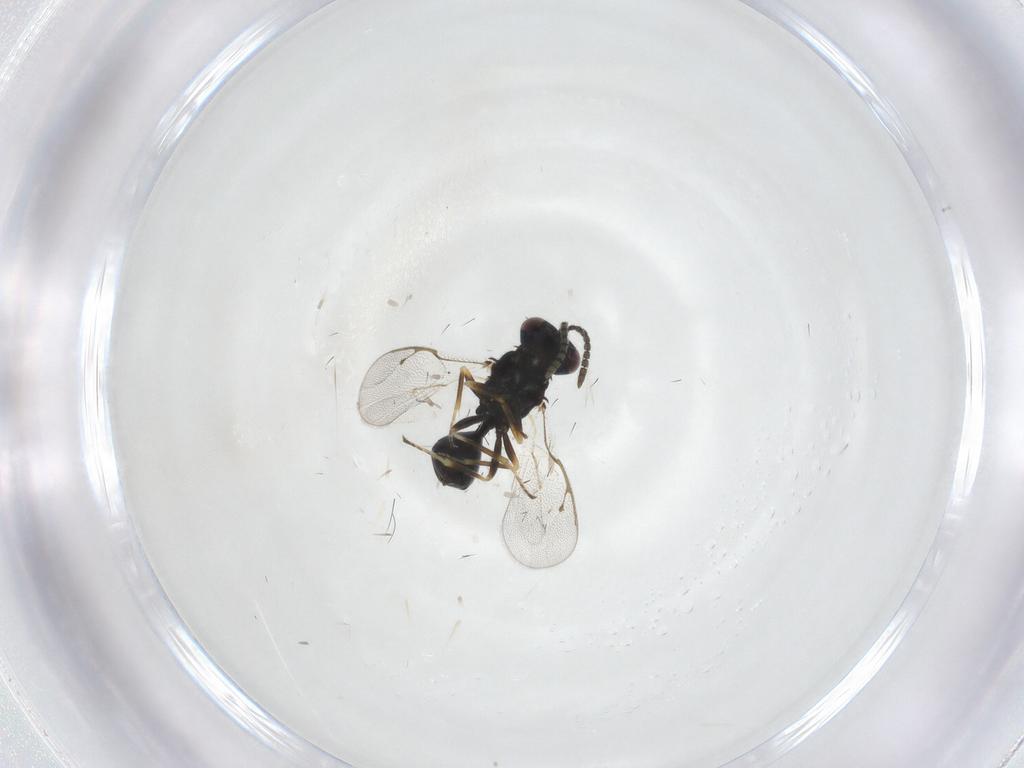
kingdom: Animalia
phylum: Arthropoda
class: Insecta
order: Hymenoptera
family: Pteromalidae
